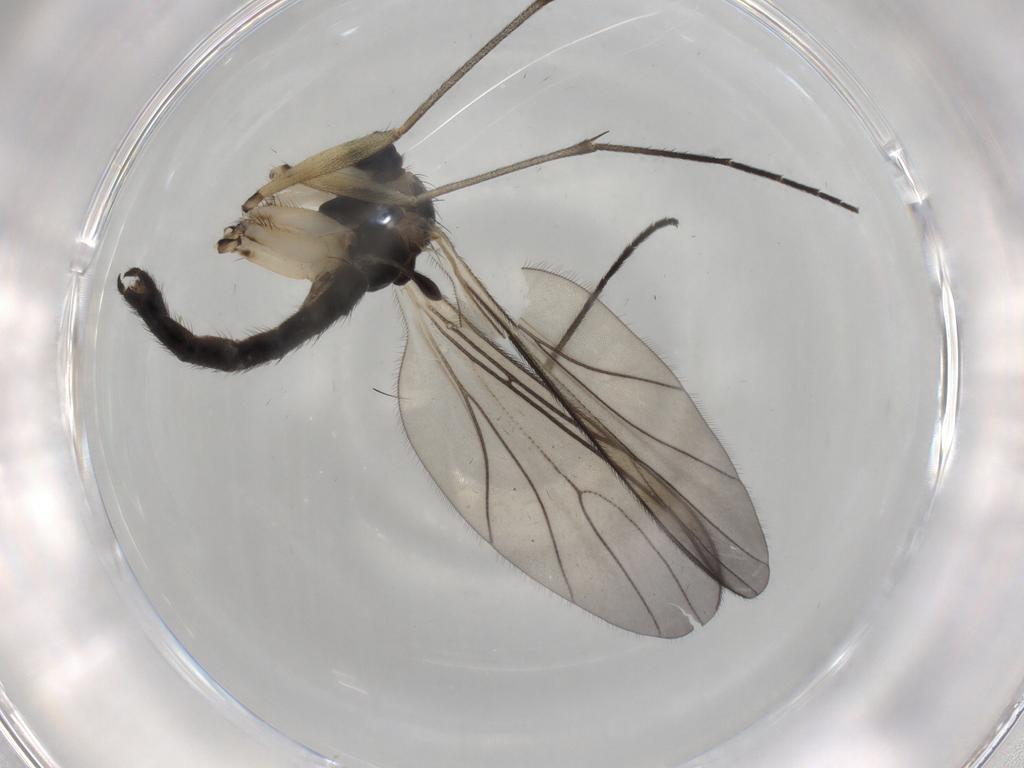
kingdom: Animalia
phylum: Arthropoda
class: Insecta
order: Diptera
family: Sciaridae
